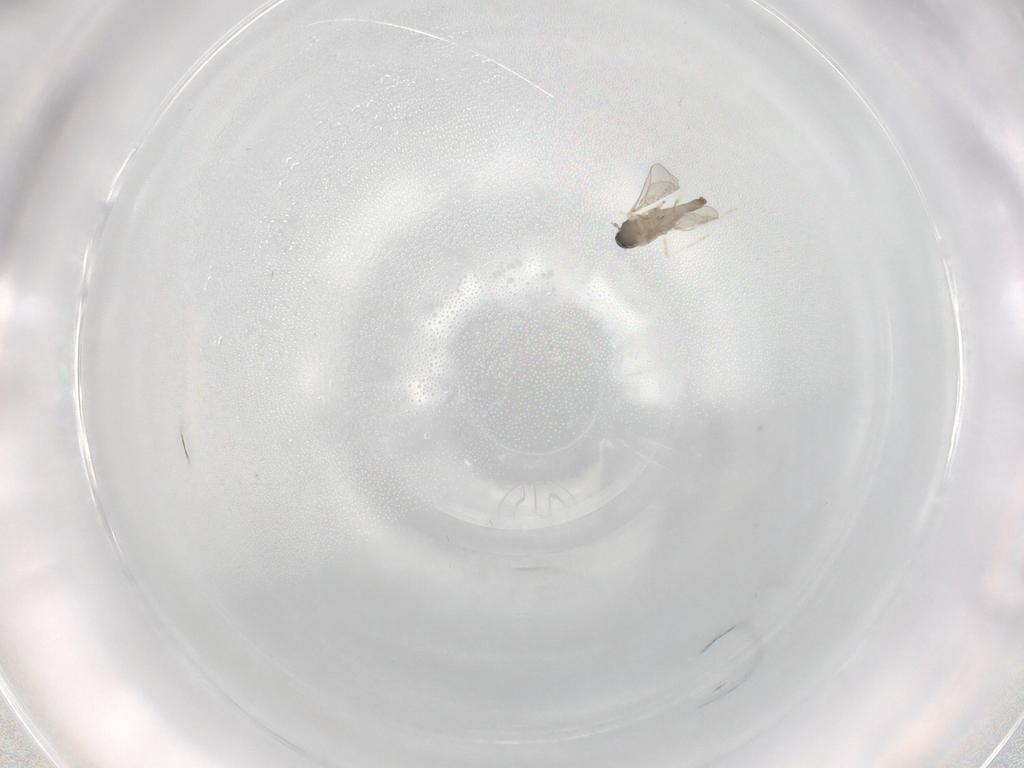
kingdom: Animalia
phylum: Arthropoda
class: Insecta
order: Diptera
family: Cecidomyiidae
